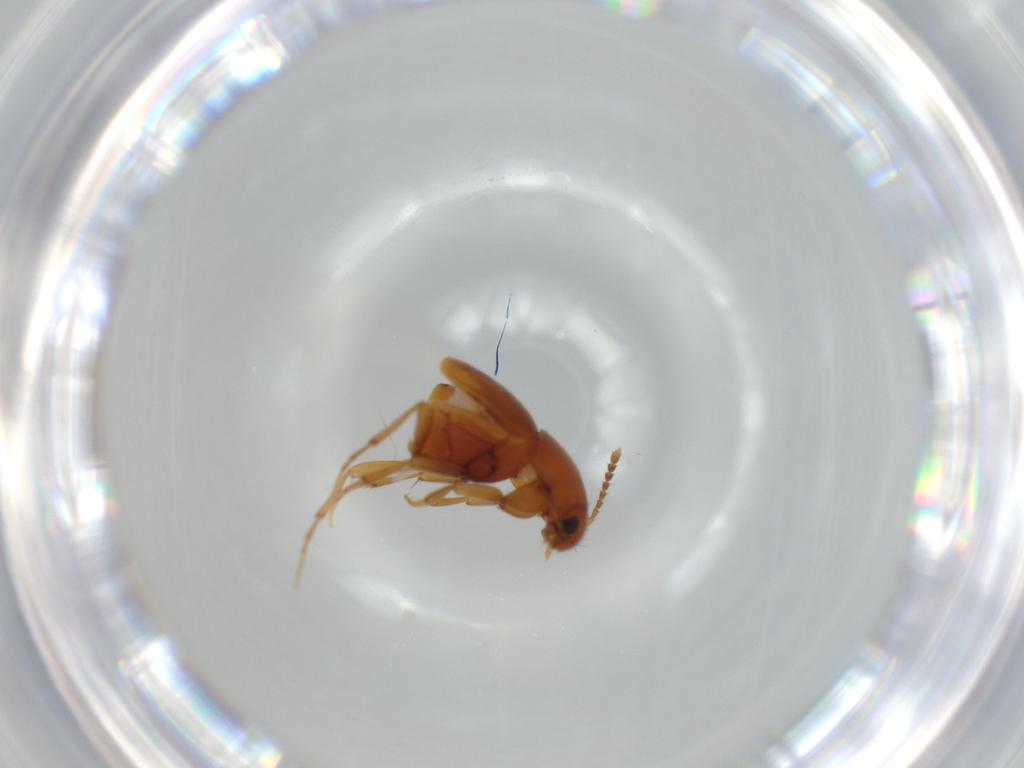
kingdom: Animalia
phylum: Arthropoda
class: Insecta
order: Coleoptera
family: Staphylinidae
